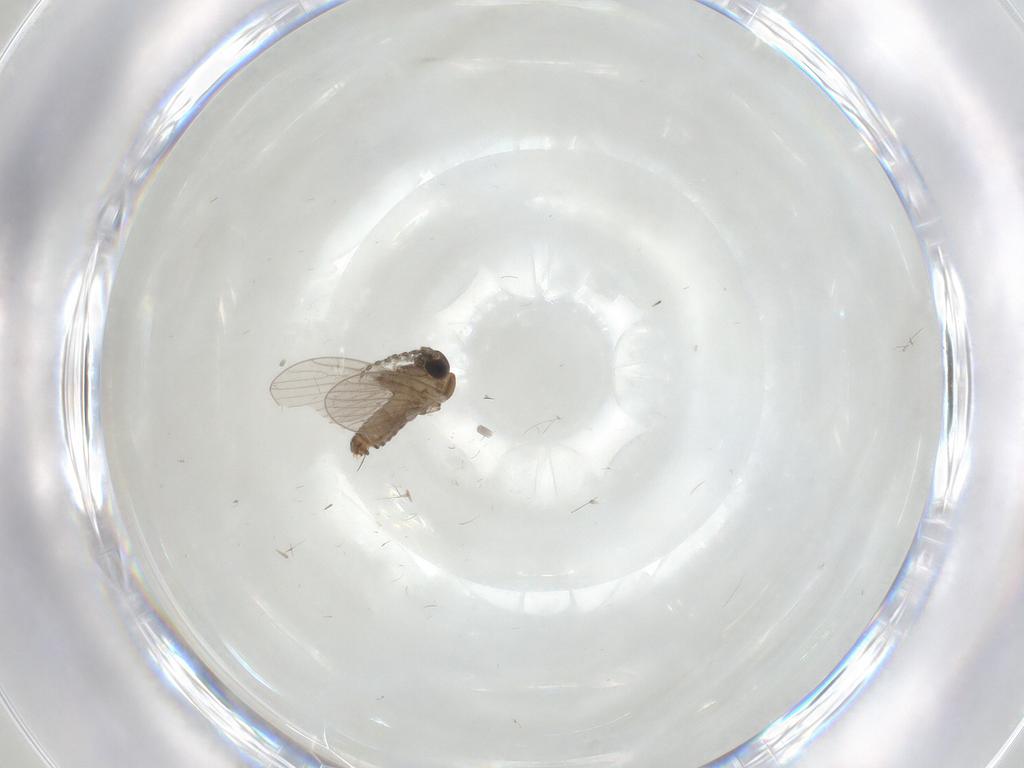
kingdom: Animalia
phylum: Arthropoda
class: Insecta
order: Diptera
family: Cecidomyiidae
